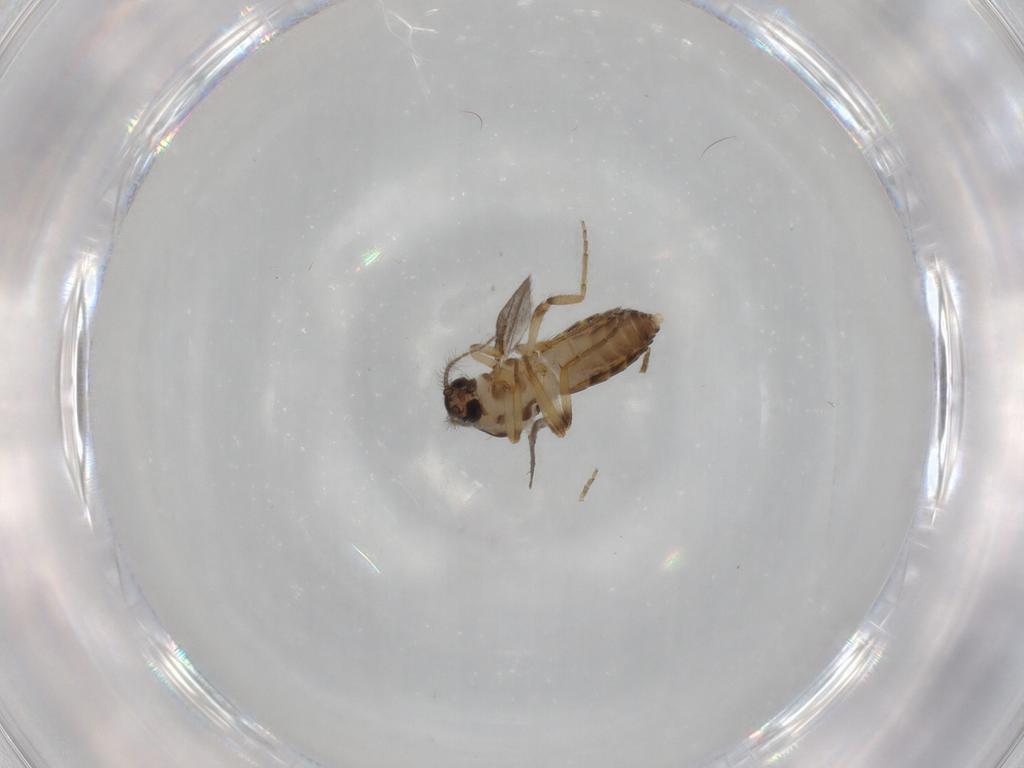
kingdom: Animalia
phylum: Arthropoda
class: Insecta
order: Diptera
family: Ceratopogonidae
